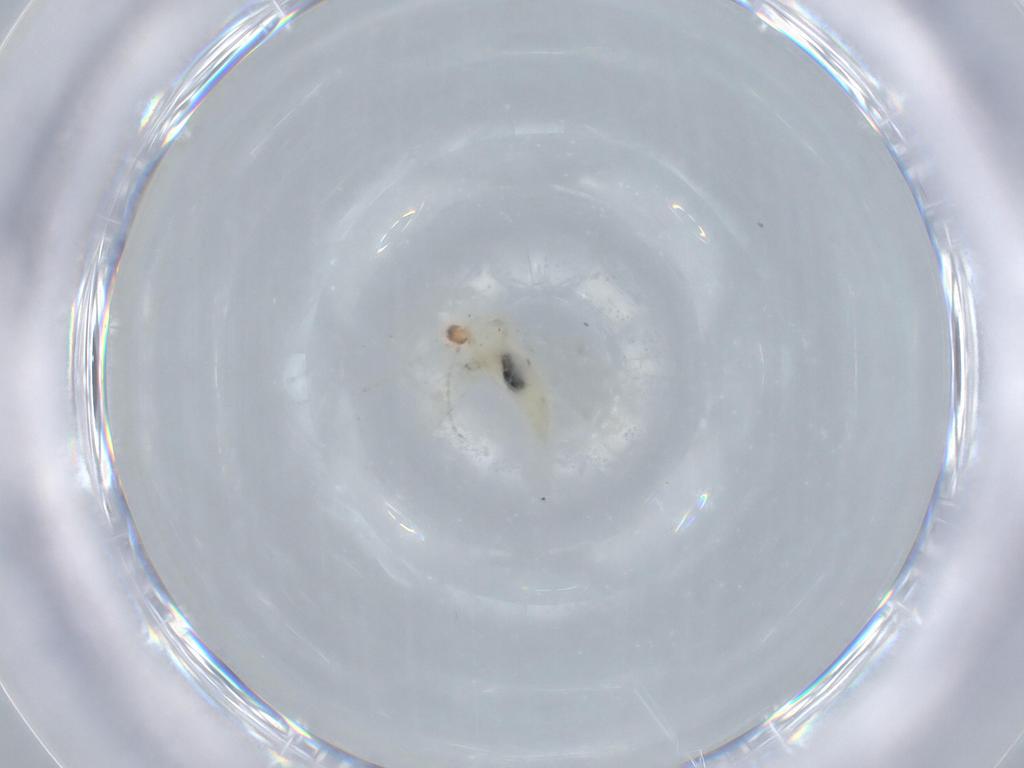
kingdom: Animalia
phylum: Arthropoda
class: Insecta
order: Diptera
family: Cecidomyiidae
